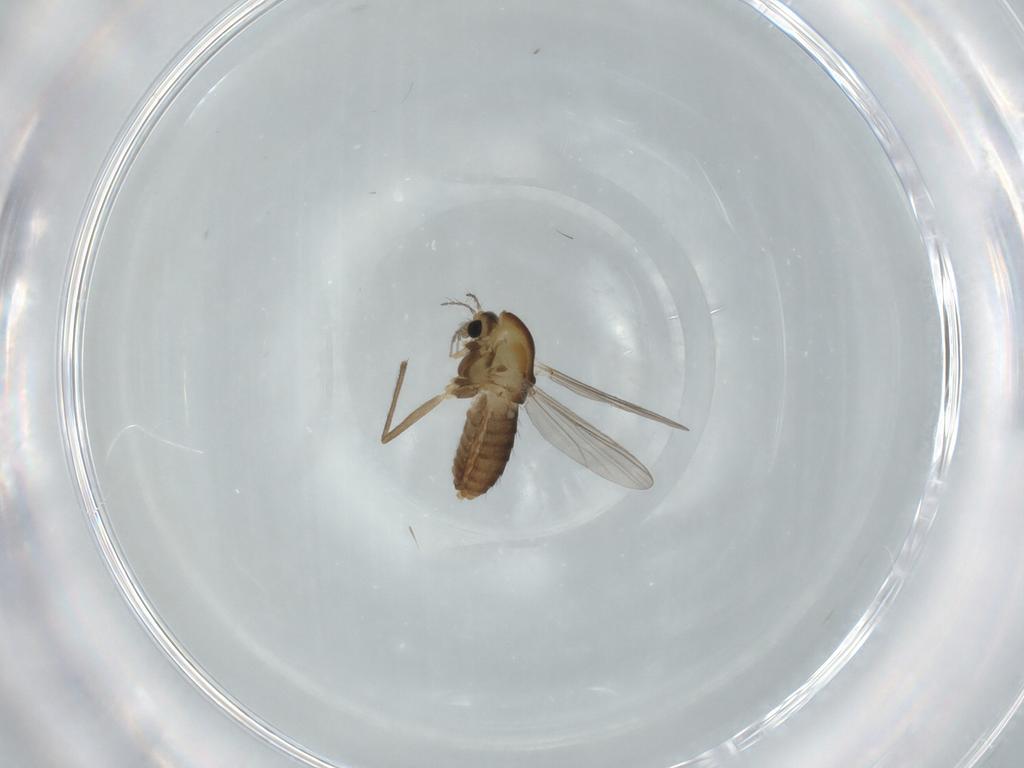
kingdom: Animalia
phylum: Arthropoda
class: Insecta
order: Diptera
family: Chironomidae
